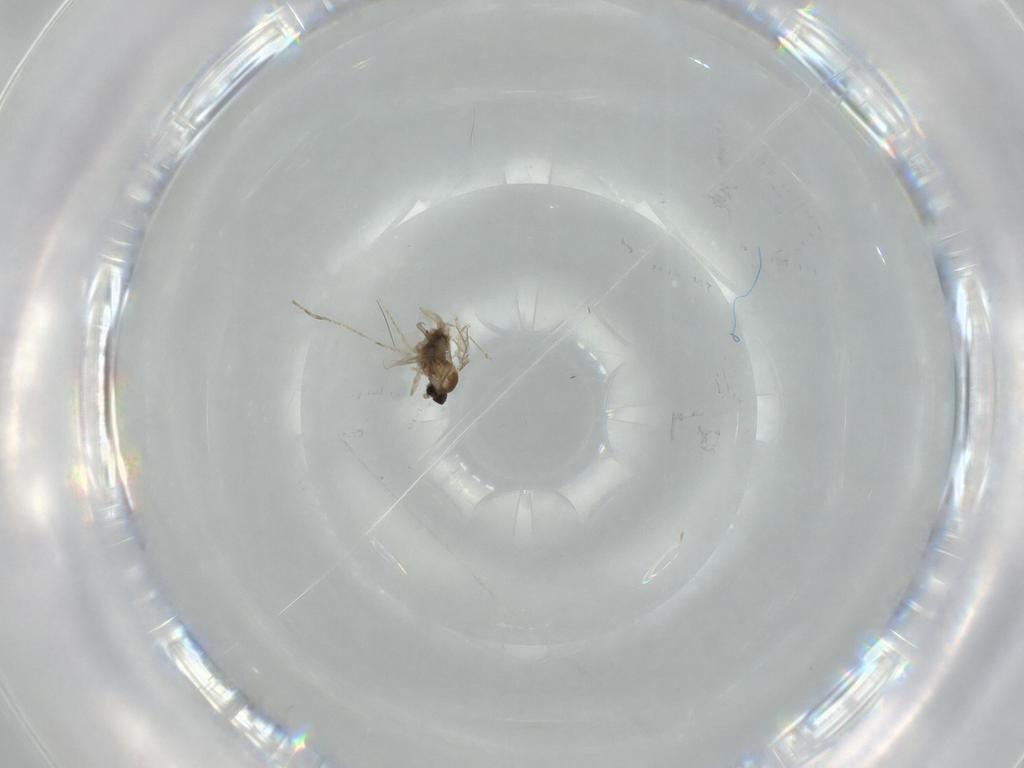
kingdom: Animalia
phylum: Arthropoda
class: Insecta
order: Diptera
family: Cecidomyiidae
